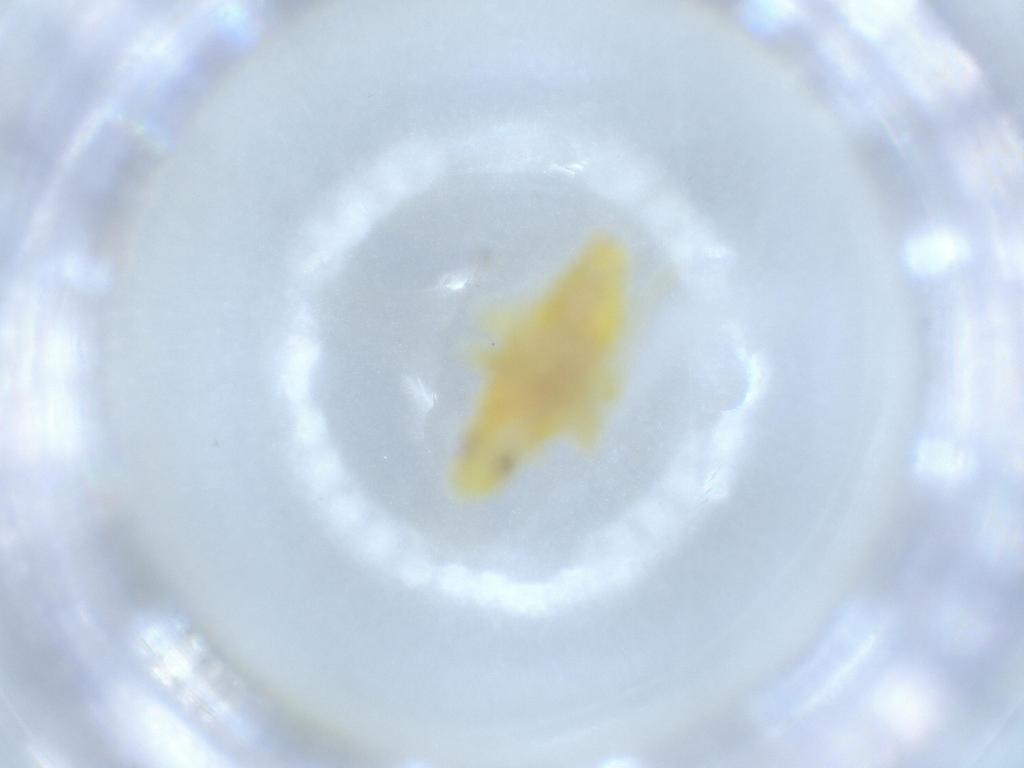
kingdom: Animalia
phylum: Arthropoda
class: Insecta
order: Hemiptera
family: Tropiduchidae
